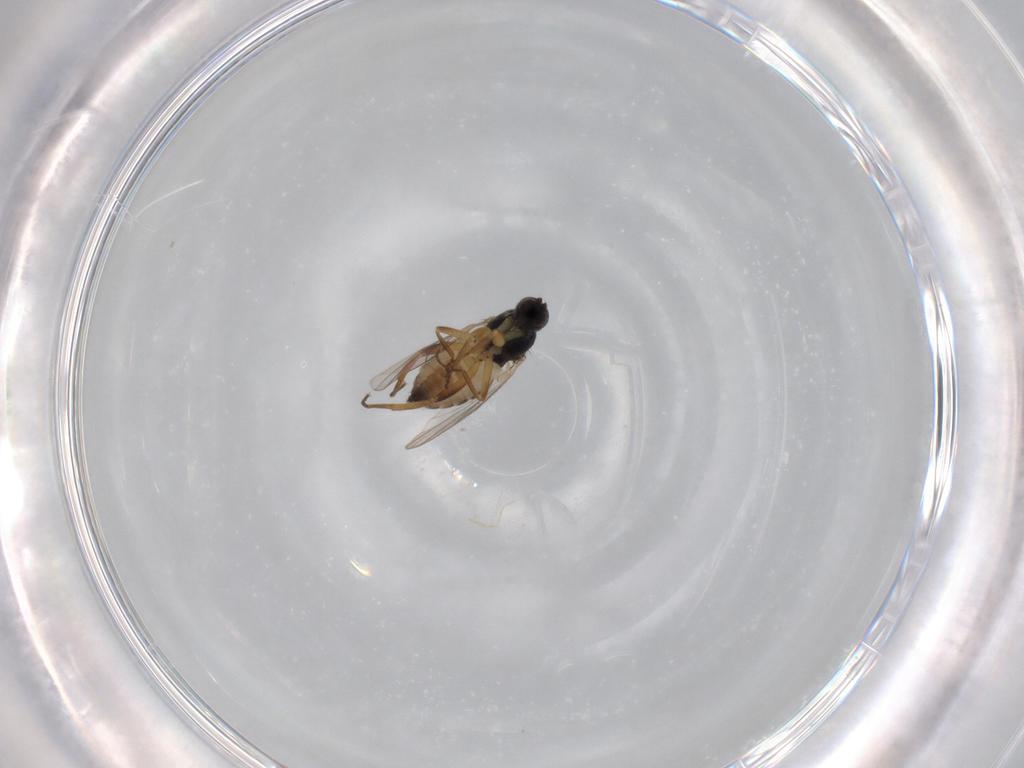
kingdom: Animalia
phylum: Arthropoda
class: Insecta
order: Diptera
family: Hybotidae
